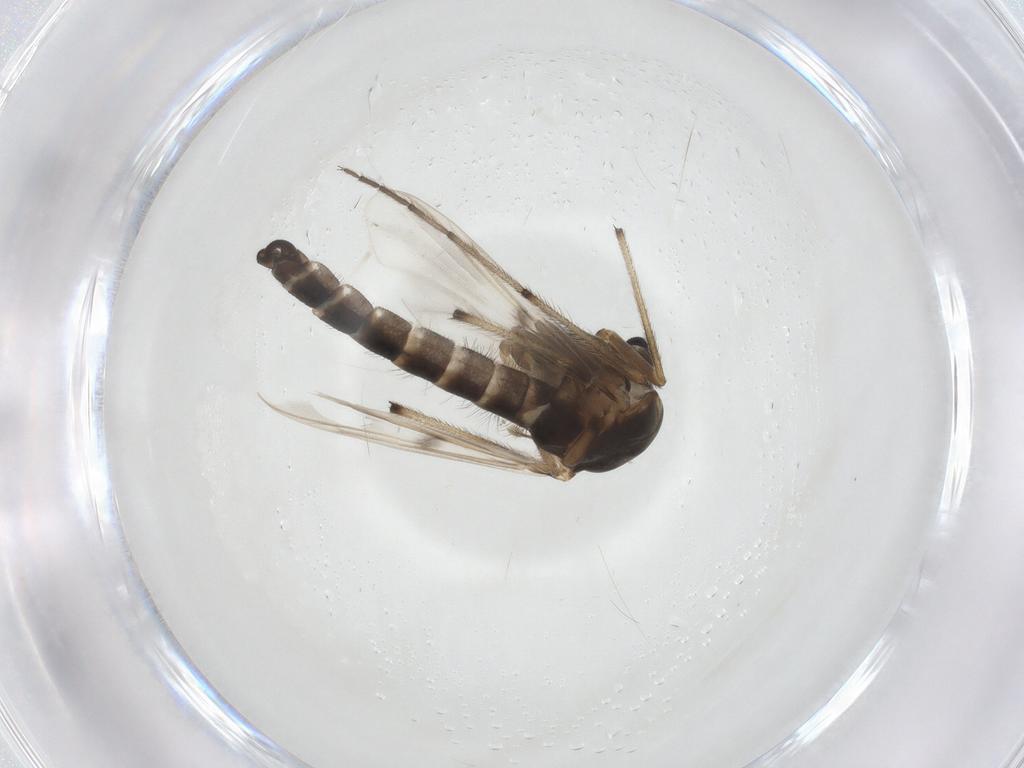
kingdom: Animalia
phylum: Arthropoda
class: Insecta
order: Diptera
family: Chironomidae
